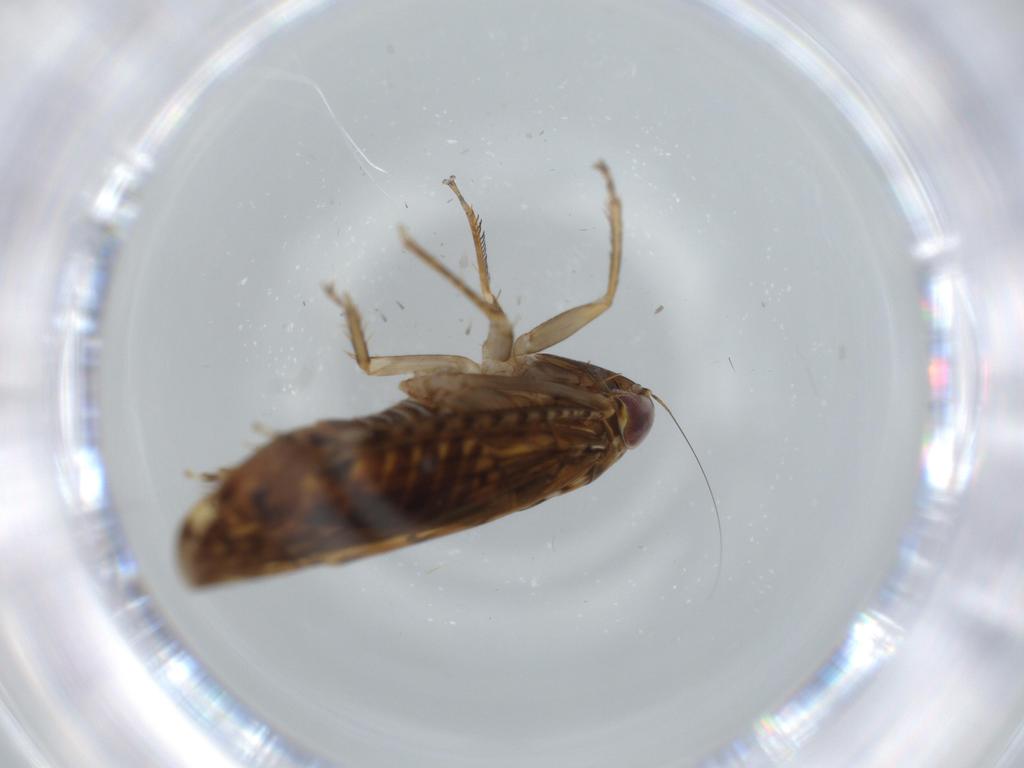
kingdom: Animalia
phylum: Arthropoda
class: Insecta
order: Hemiptera
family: Cicadellidae
